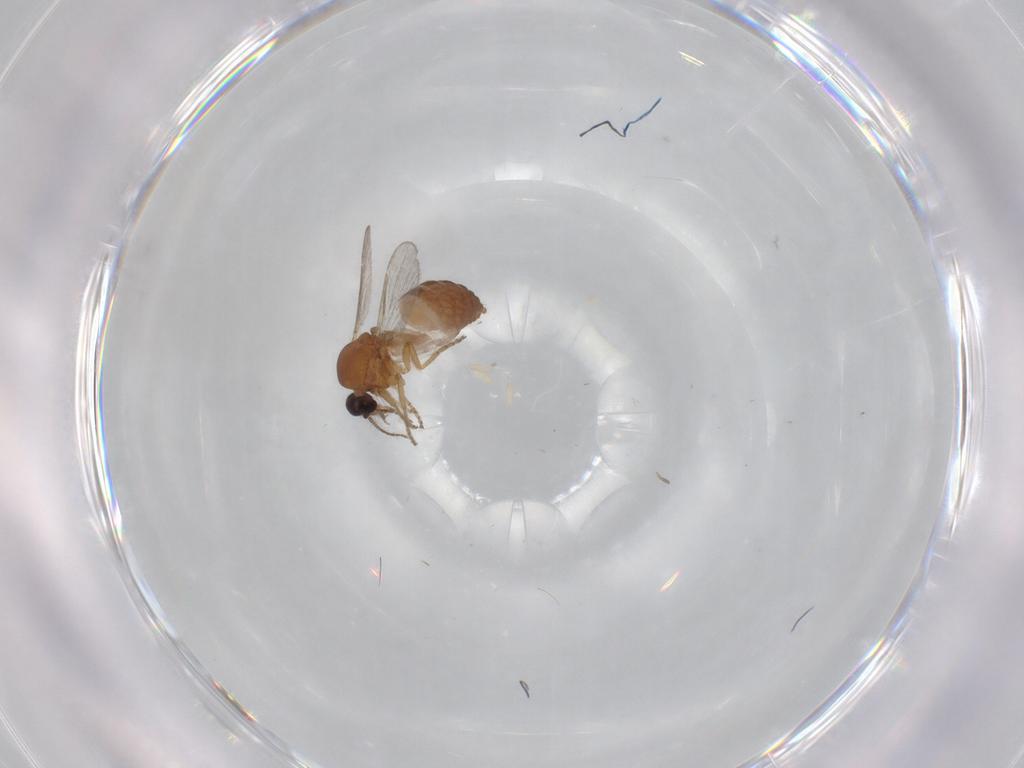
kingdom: Animalia
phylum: Arthropoda
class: Insecta
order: Diptera
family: Ceratopogonidae
